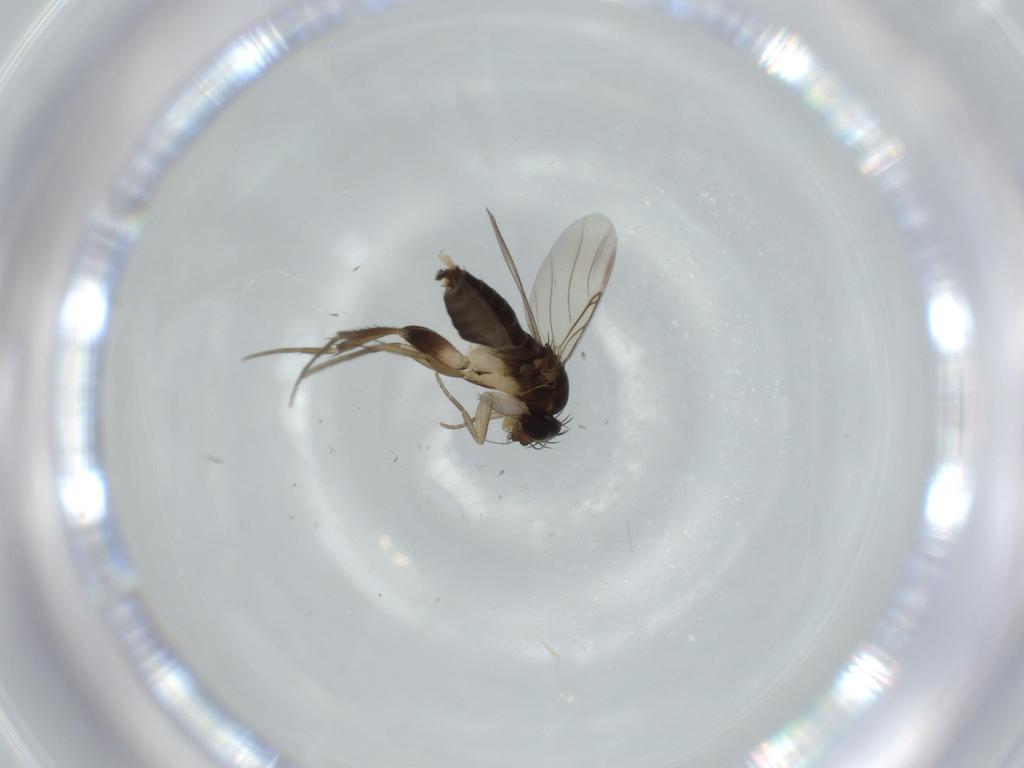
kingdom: Animalia
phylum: Arthropoda
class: Insecta
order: Diptera
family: Phoridae
